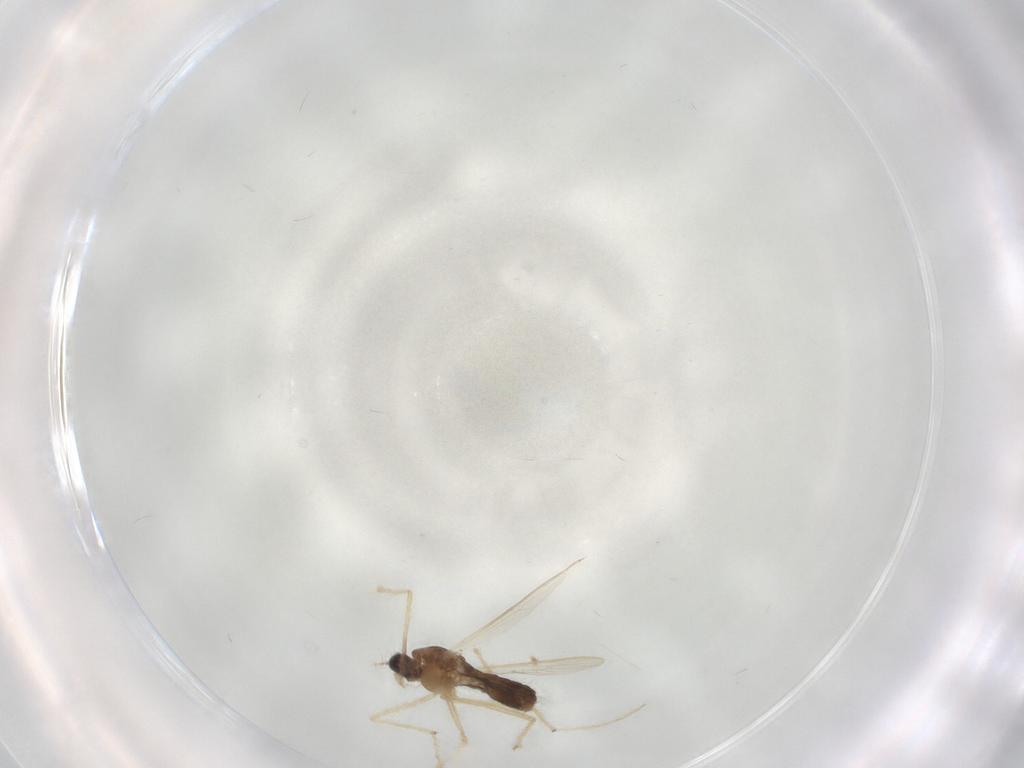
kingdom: Animalia
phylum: Arthropoda
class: Insecta
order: Diptera
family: Chironomidae
